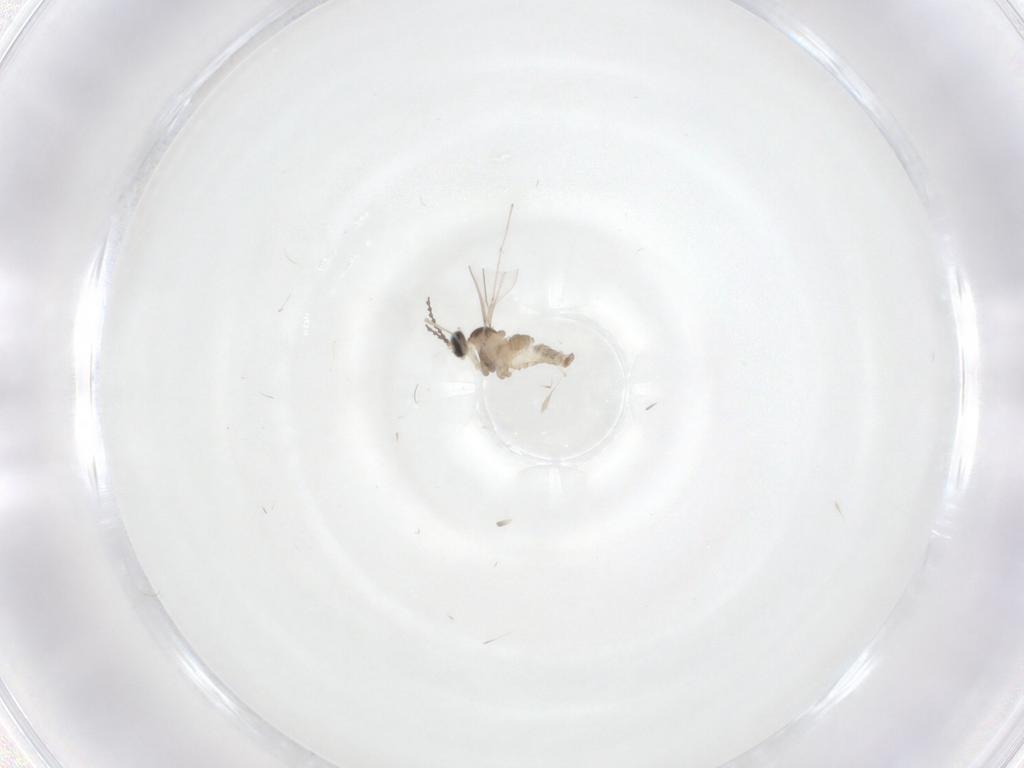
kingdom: Animalia
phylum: Arthropoda
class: Insecta
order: Diptera
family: Cecidomyiidae
